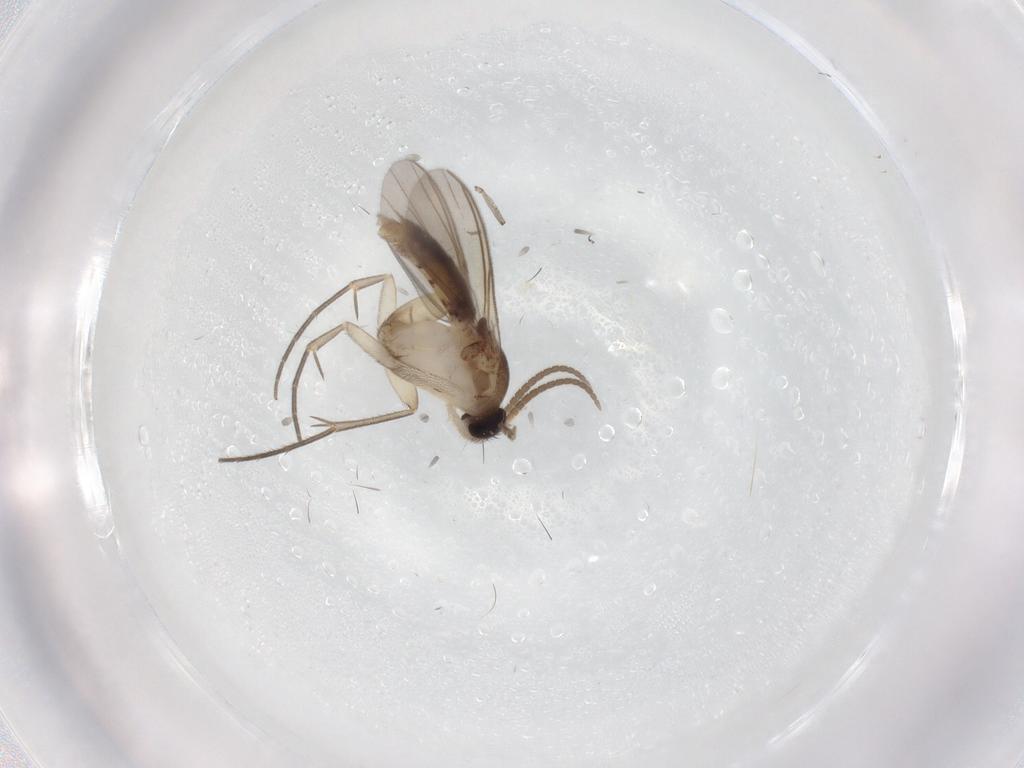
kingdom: Animalia
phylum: Arthropoda
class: Insecta
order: Diptera
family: Mycetophilidae
